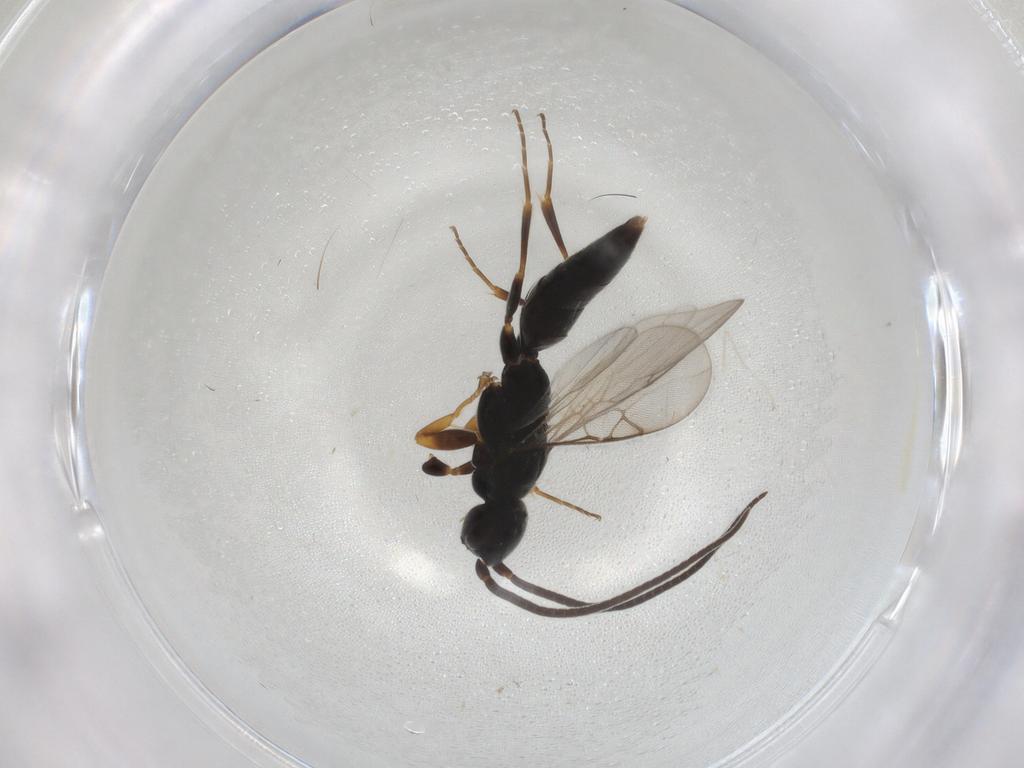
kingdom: Animalia
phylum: Arthropoda
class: Insecta
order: Hymenoptera
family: Sclerogibbidae
